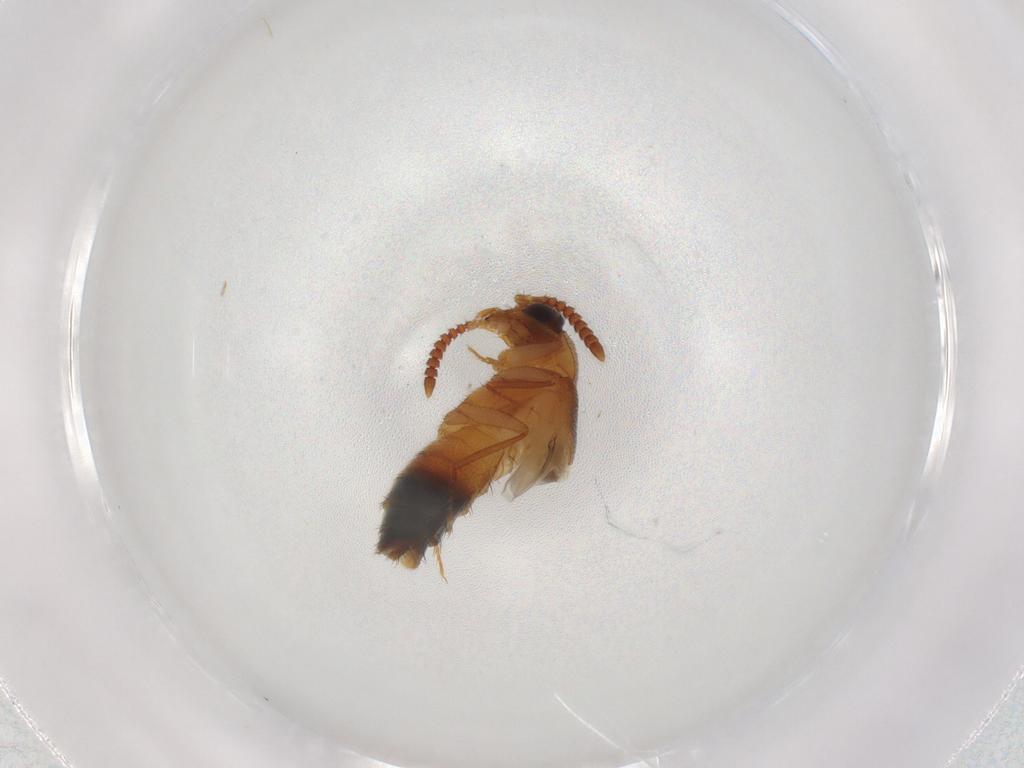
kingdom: Animalia
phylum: Arthropoda
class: Insecta
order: Coleoptera
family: Staphylinidae
